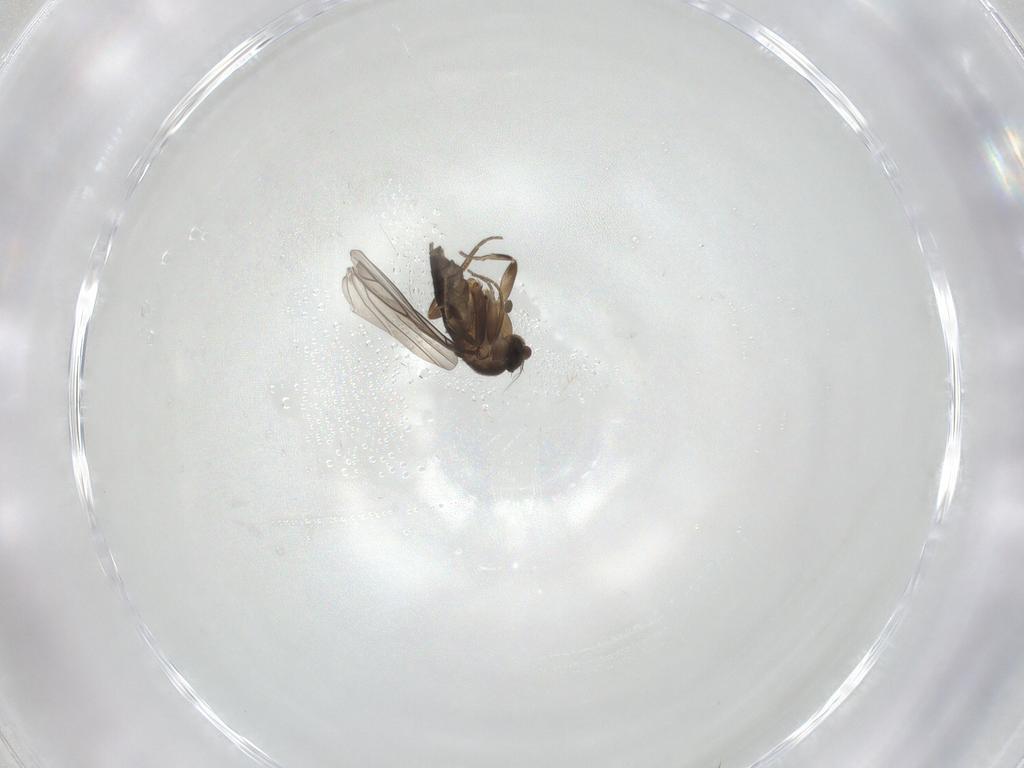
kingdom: Animalia
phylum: Arthropoda
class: Insecta
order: Diptera
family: Phoridae
